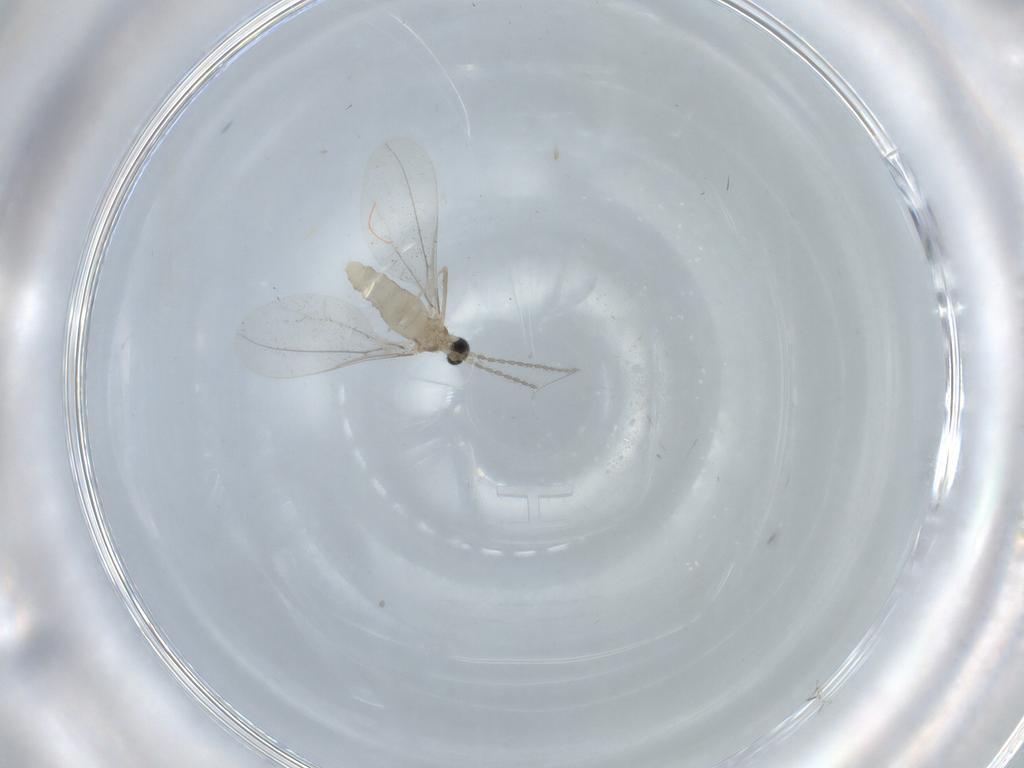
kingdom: Animalia
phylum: Arthropoda
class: Insecta
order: Diptera
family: Cecidomyiidae
